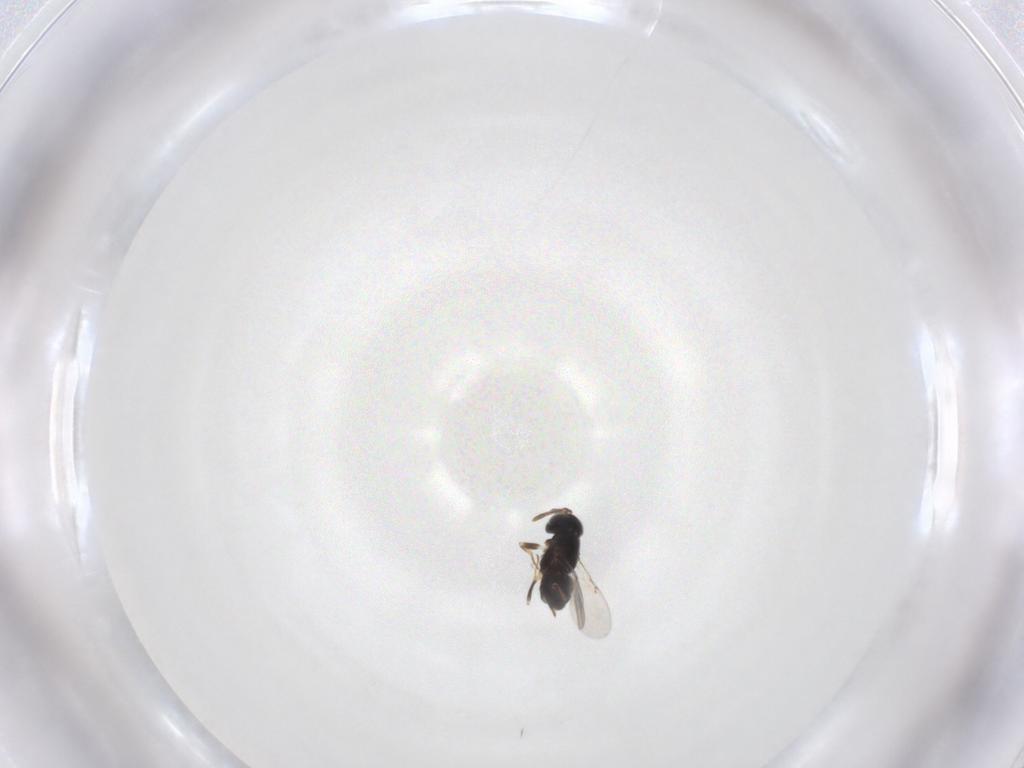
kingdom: Animalia
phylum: Arthropoda
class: Insecta
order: Hymenoptera
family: Encyrtidae
